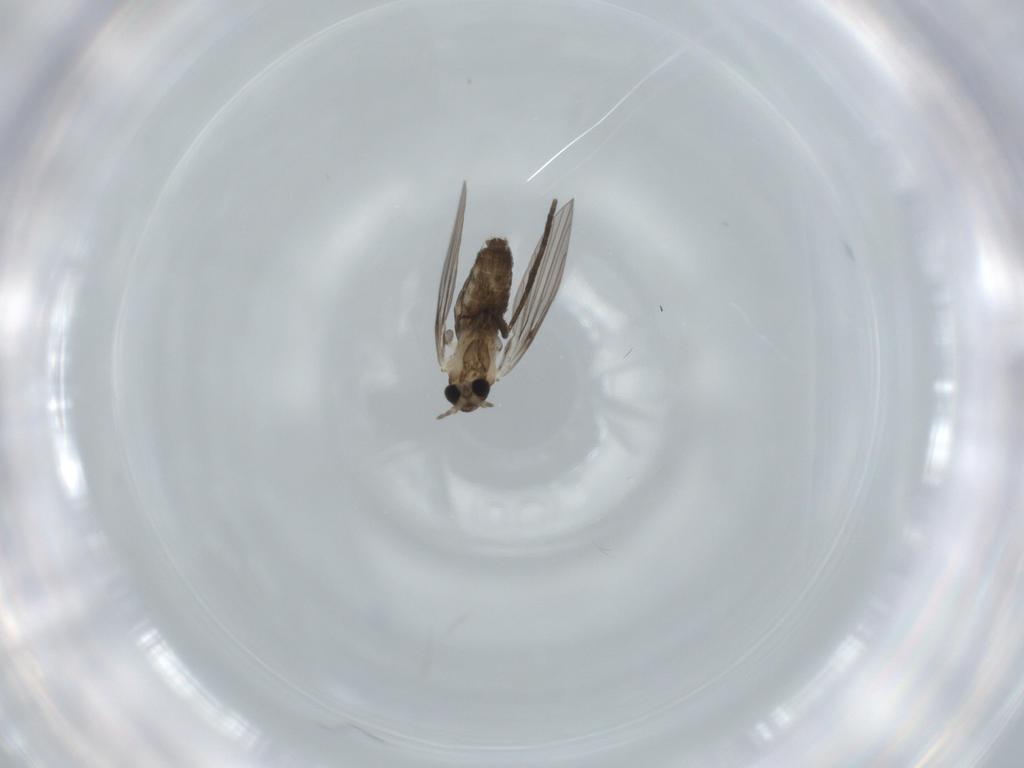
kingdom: Animalia
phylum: Arthropoda
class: Insecta
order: Diptera
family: Psychodidae
